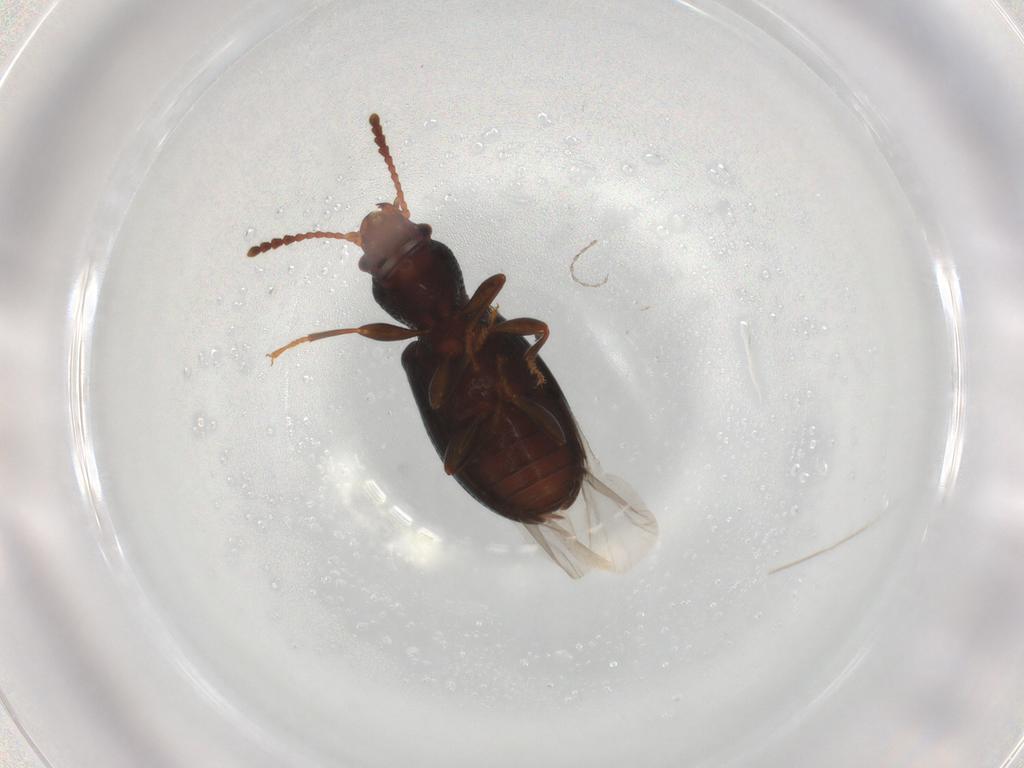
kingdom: Animalia
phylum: Arthropoda
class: Insecta
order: Coleoptera
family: Salpingidae
